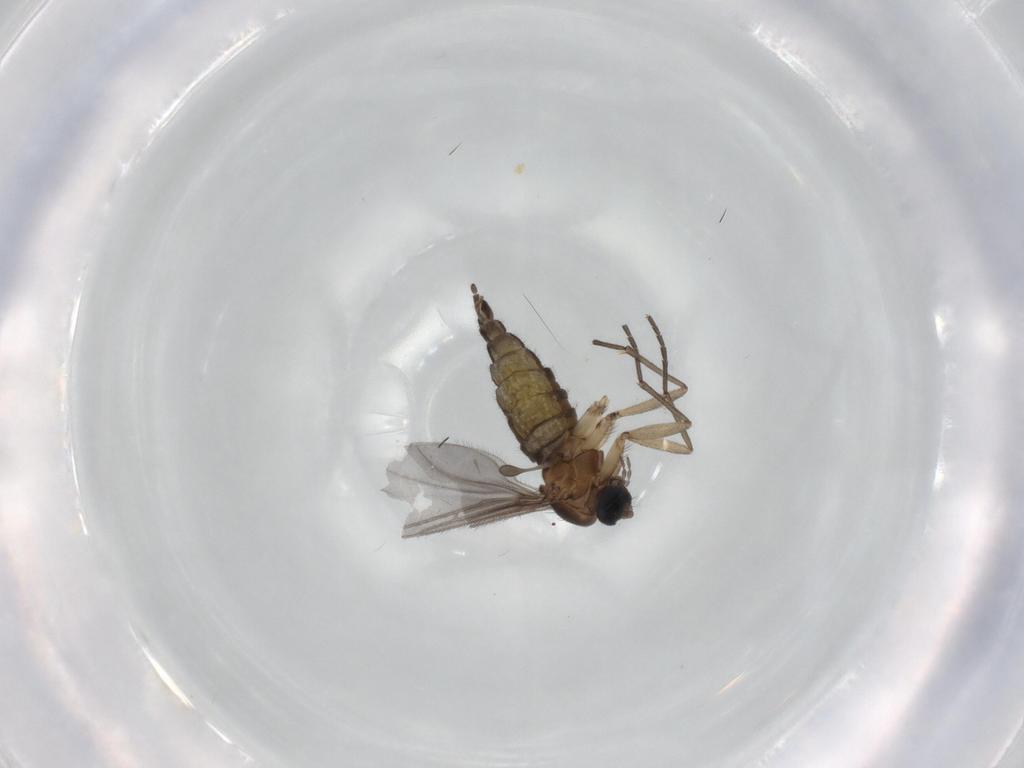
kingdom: Animalia
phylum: Arthropoda
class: Insecta
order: Diptera
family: Sciaridae
